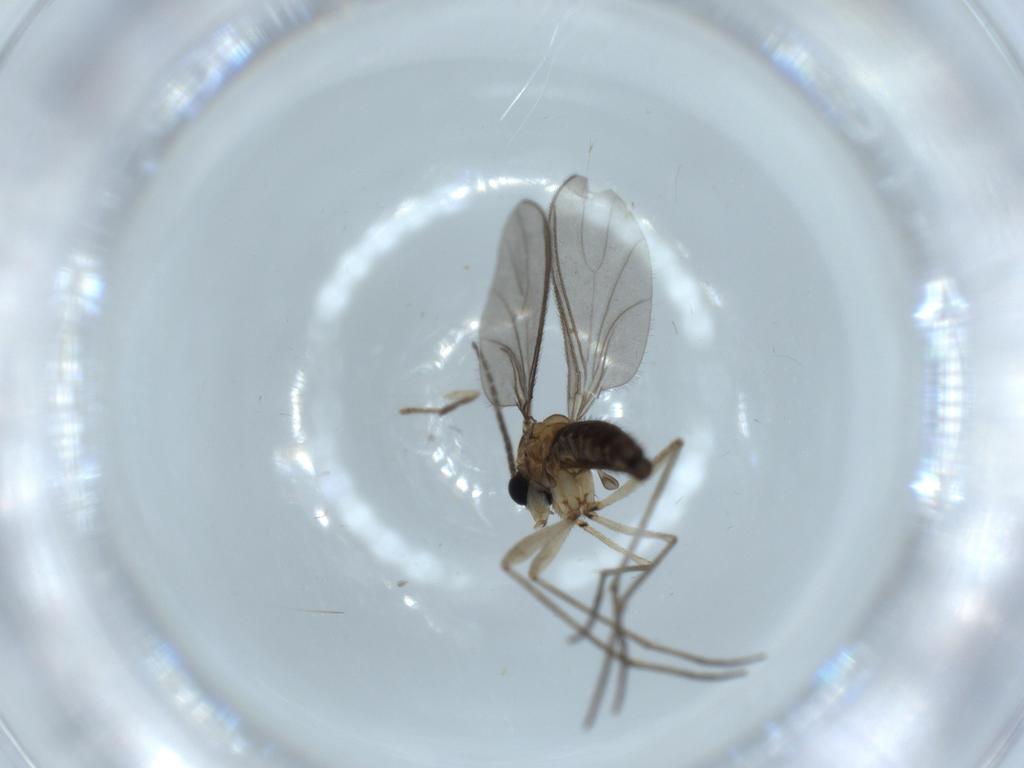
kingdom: Animalia
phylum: Arthropoda
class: Insecta
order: Diptera
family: Sciaridae
